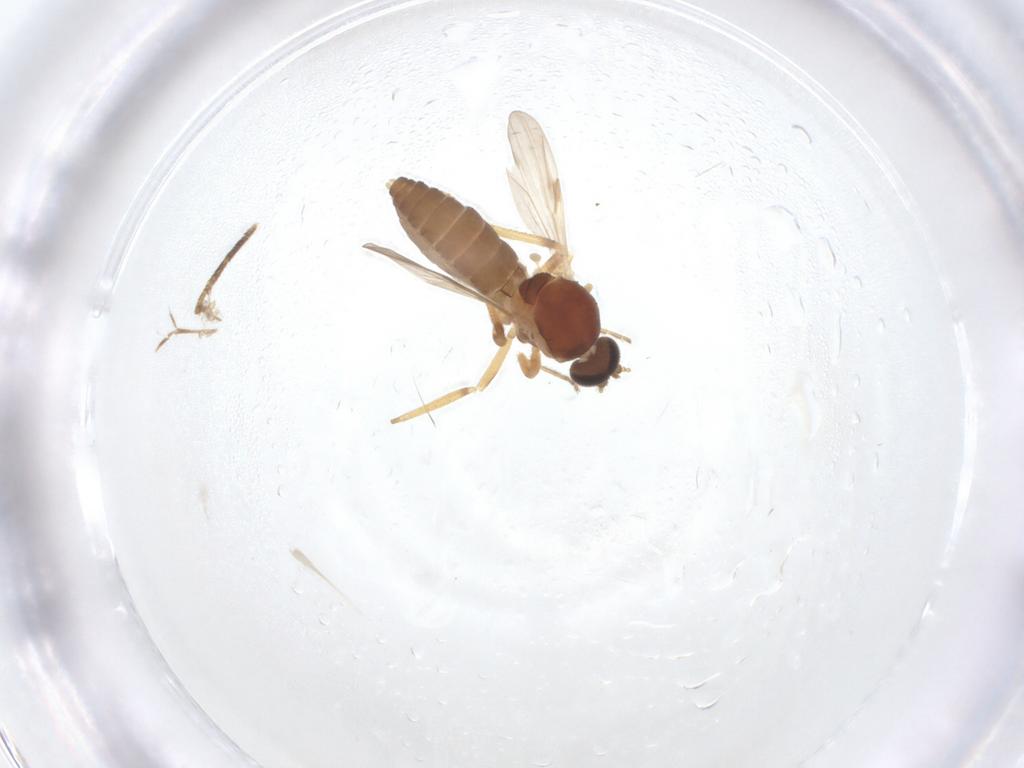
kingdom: Animalia
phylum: Arthropoda
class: Insecta
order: Diptera
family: Ceratopogonidae
